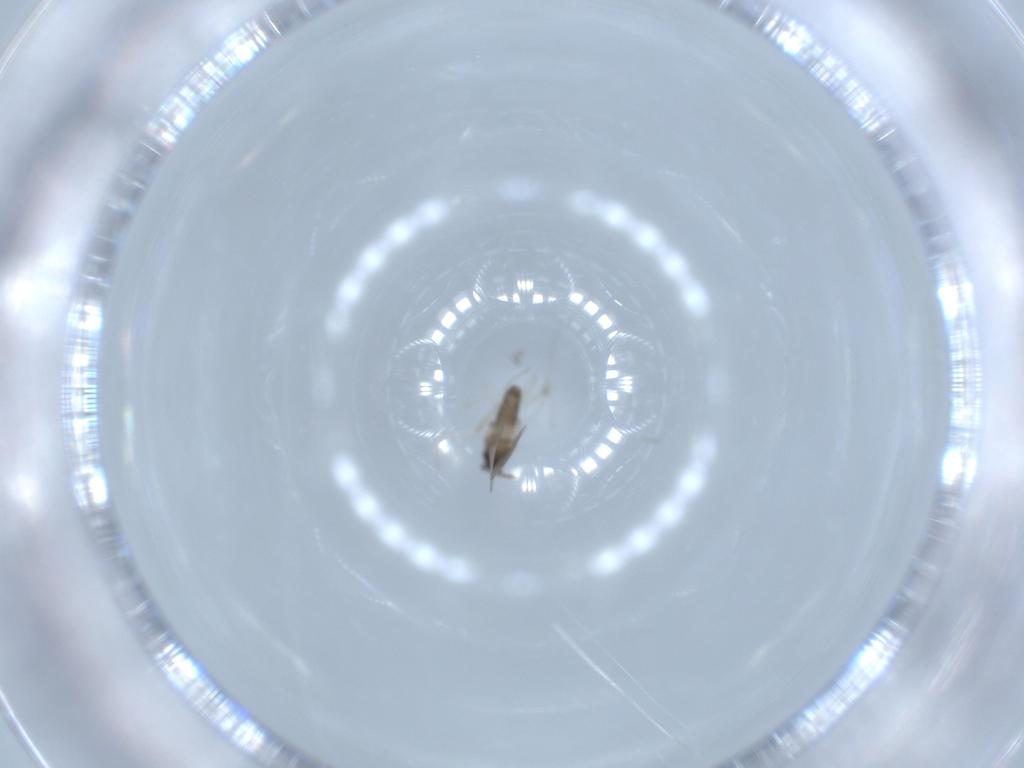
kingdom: Animalia
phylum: Arthropoda
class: Insecta
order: Diptera
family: Cecidomyiidae
